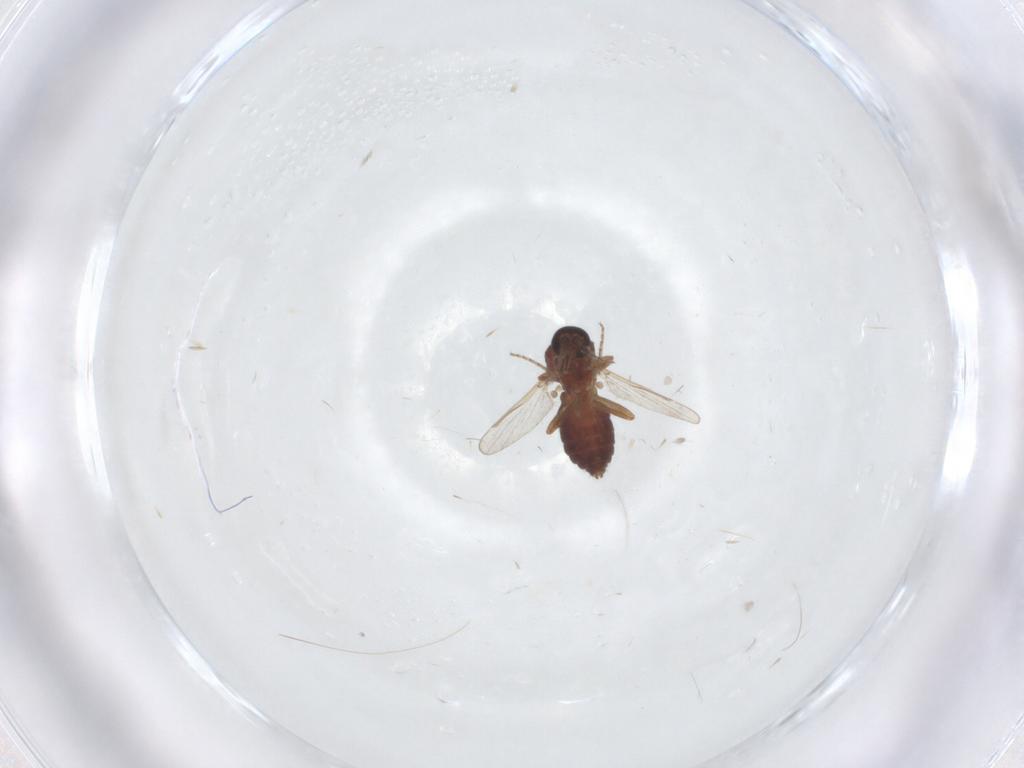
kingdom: Animalia
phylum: Arthropoda
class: Insecta
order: Diptera
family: Ceratopogonidae
